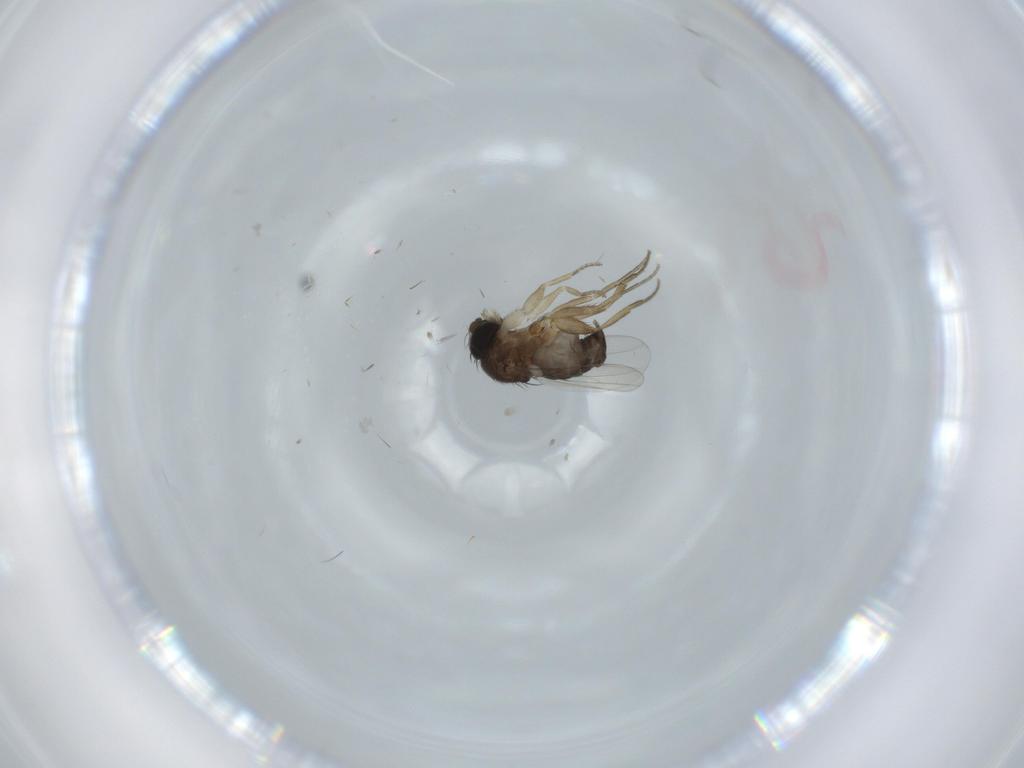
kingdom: Animalia
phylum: Arthropoda
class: Insecta
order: Diptera
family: Phoridae
